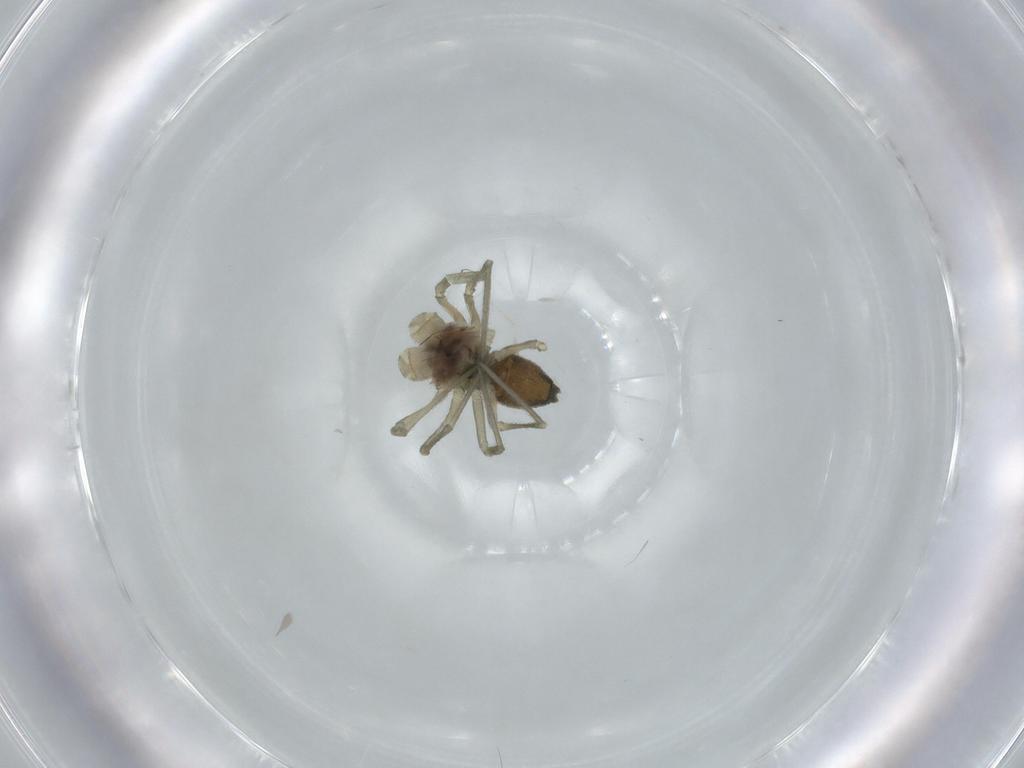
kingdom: Animalia
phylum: Arthropoda
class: Arachnida
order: Araneae
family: Linyphiidae
